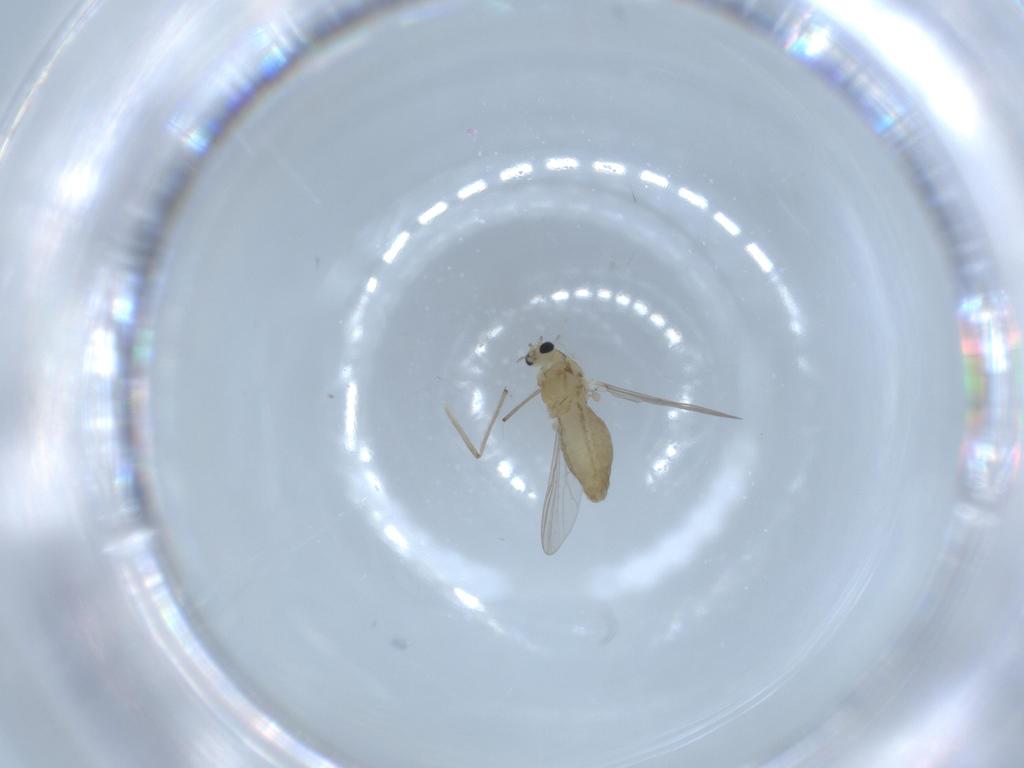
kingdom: Animalia
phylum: Arthropoda
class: Insecta
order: Diptera
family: Chironomidae
